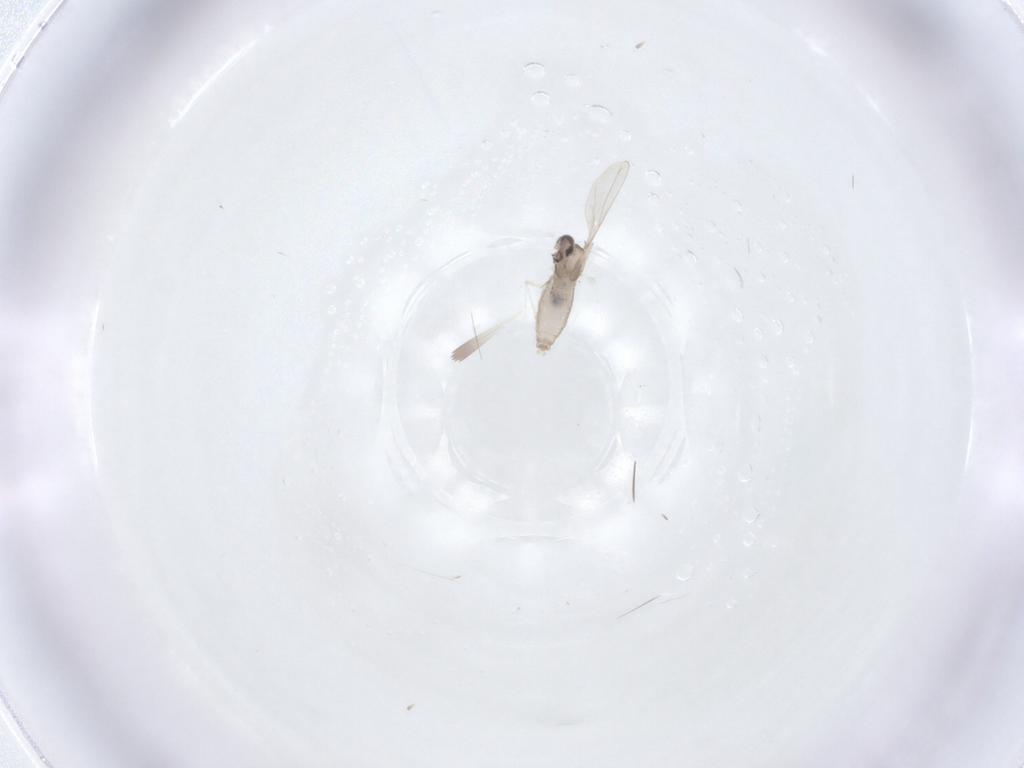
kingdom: Animalia
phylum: Arthropoda
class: Insecta
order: Diptera
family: Cecidomyiidae
